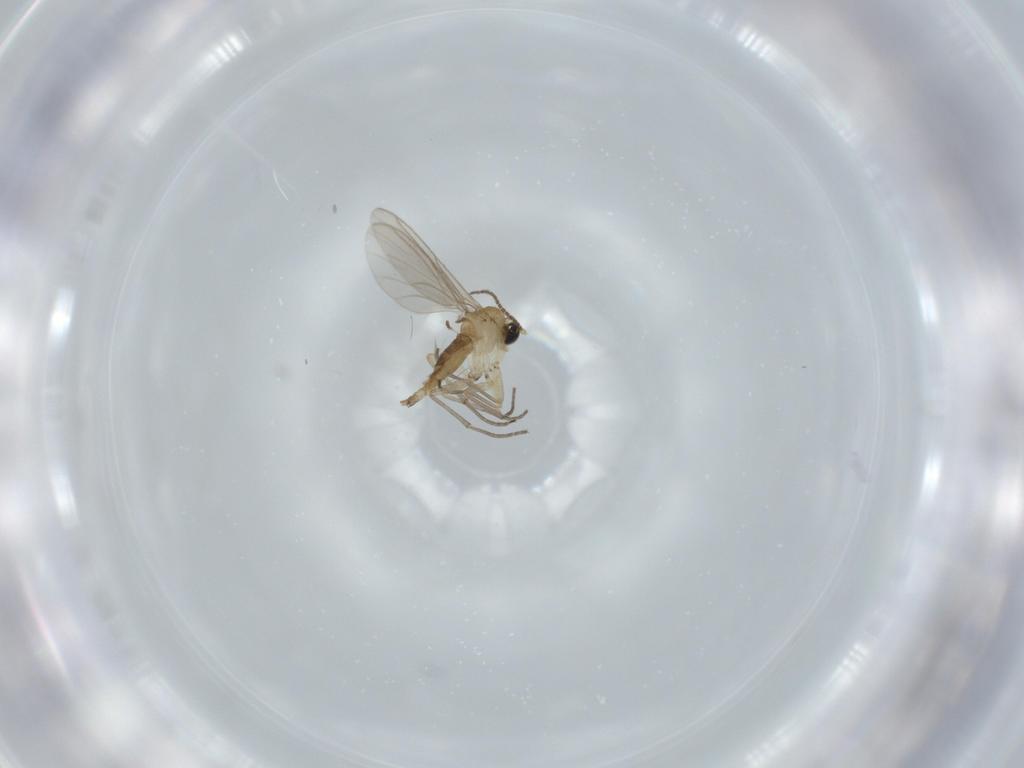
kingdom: Animalia
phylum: Arthropoda
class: Insecta
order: Diptera
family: Sciaridae
